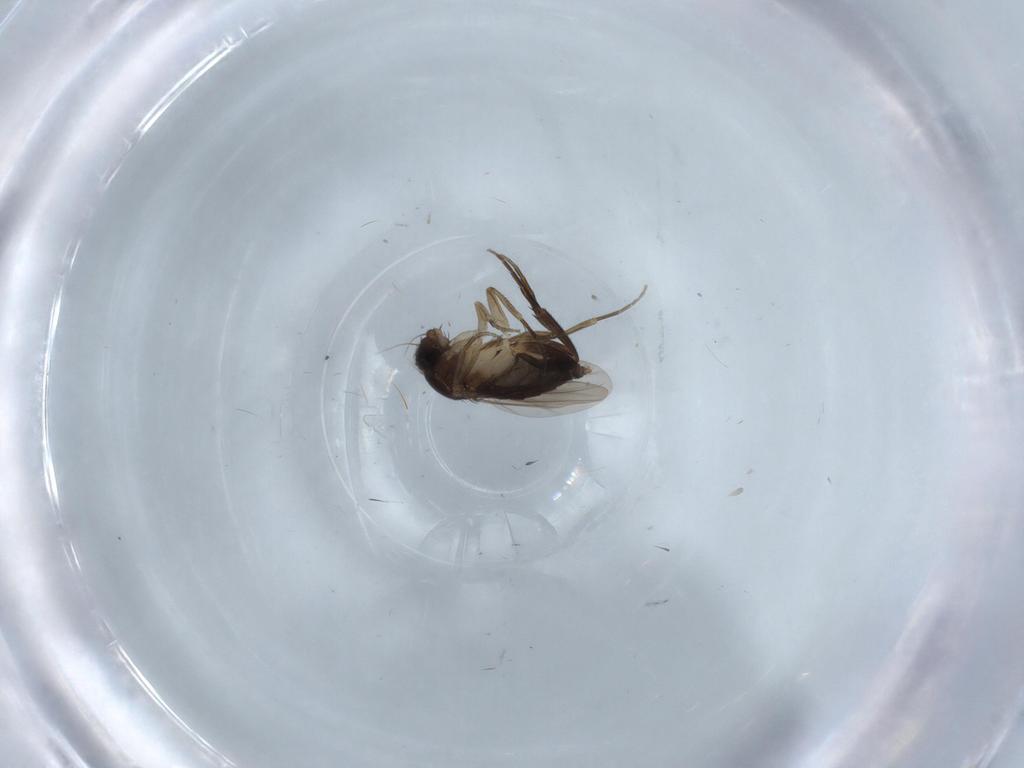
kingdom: Animalia
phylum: Arthropoda
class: Insecta
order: Diptera
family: Phoridae
